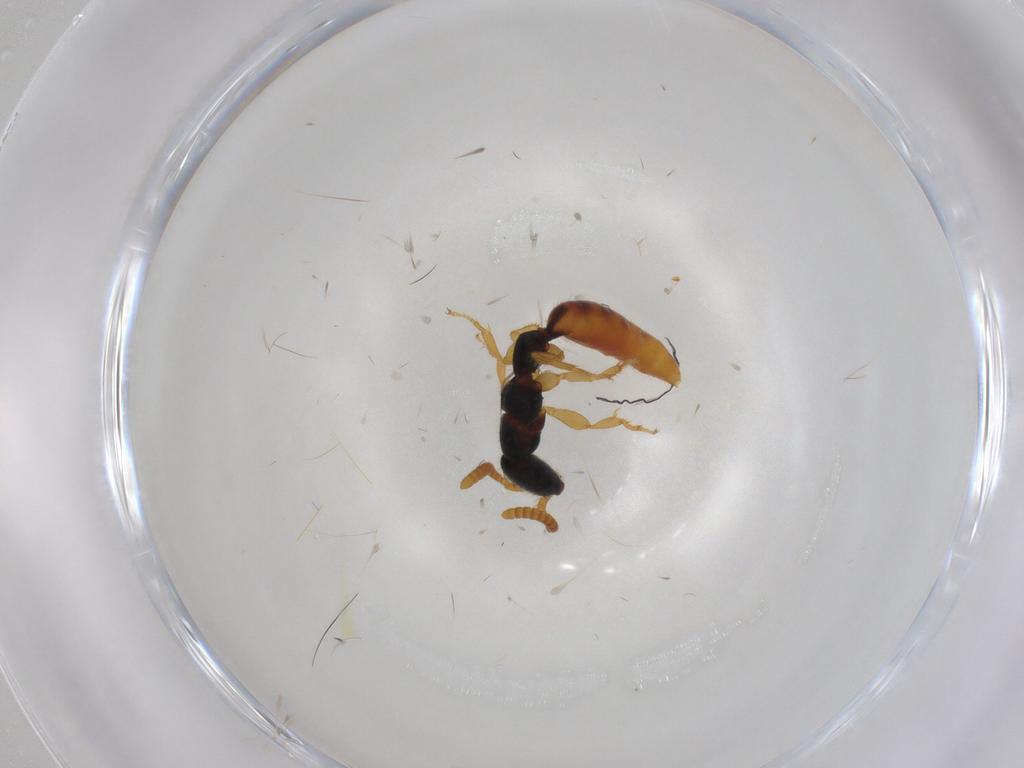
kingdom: Animalia
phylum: Arthropoda
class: Insecta
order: Hymenoptera
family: Bethylidae
